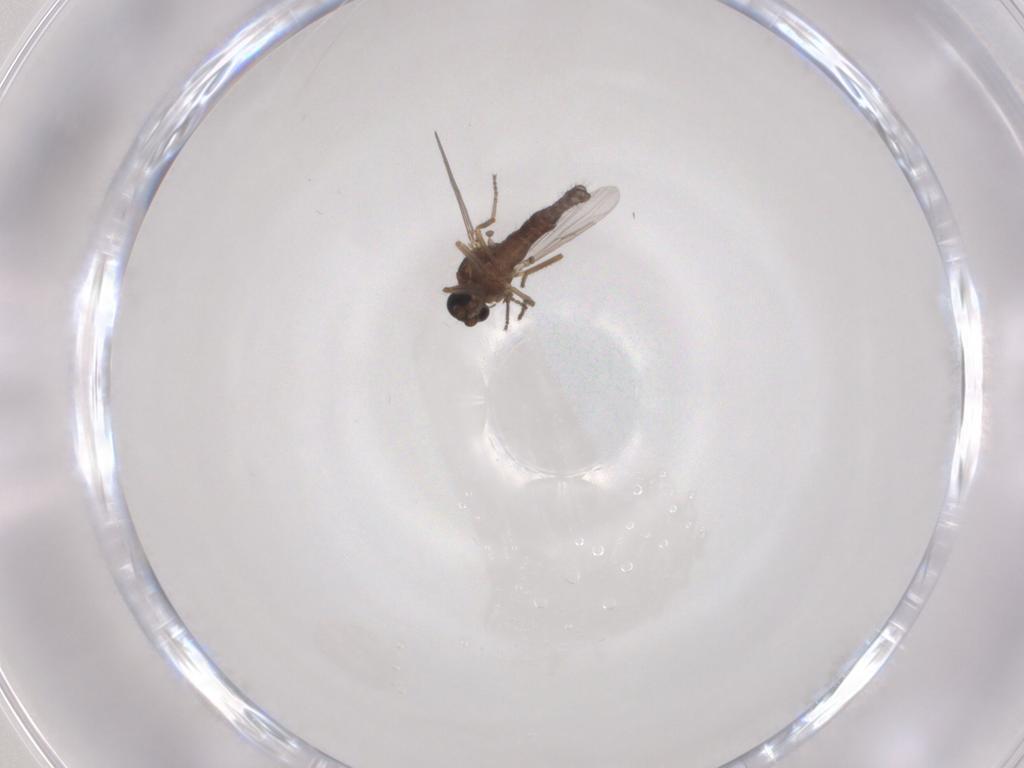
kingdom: Animalia
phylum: Arthropoda
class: Insecta
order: Diptera
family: Ceratopogonidae
